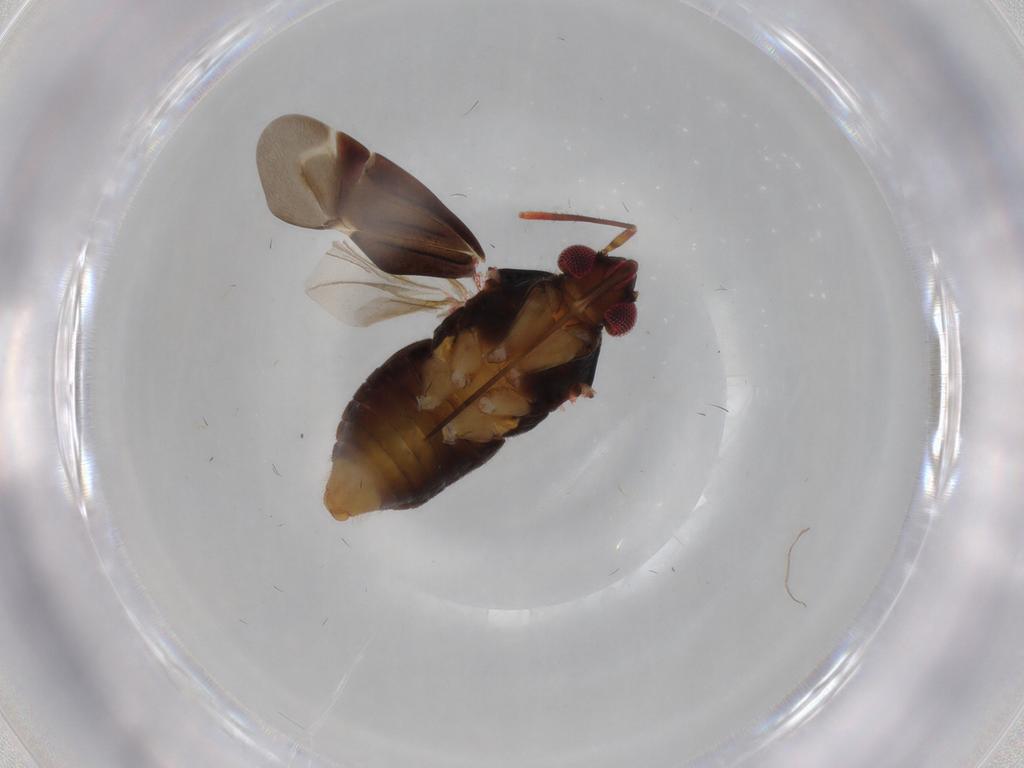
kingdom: Animalia
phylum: Arthropoda
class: Insecta
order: Hemiptera
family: Miridae
